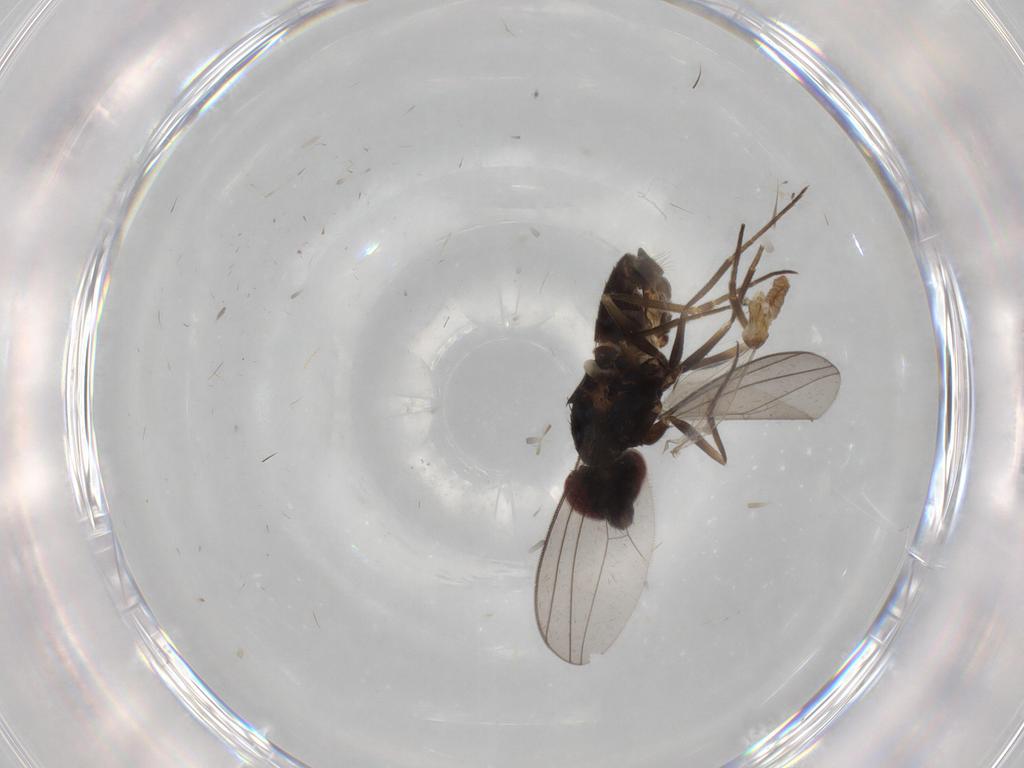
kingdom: Animalia
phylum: Arthropoda
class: Insecta
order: Diptera
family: Dolichopodidae
